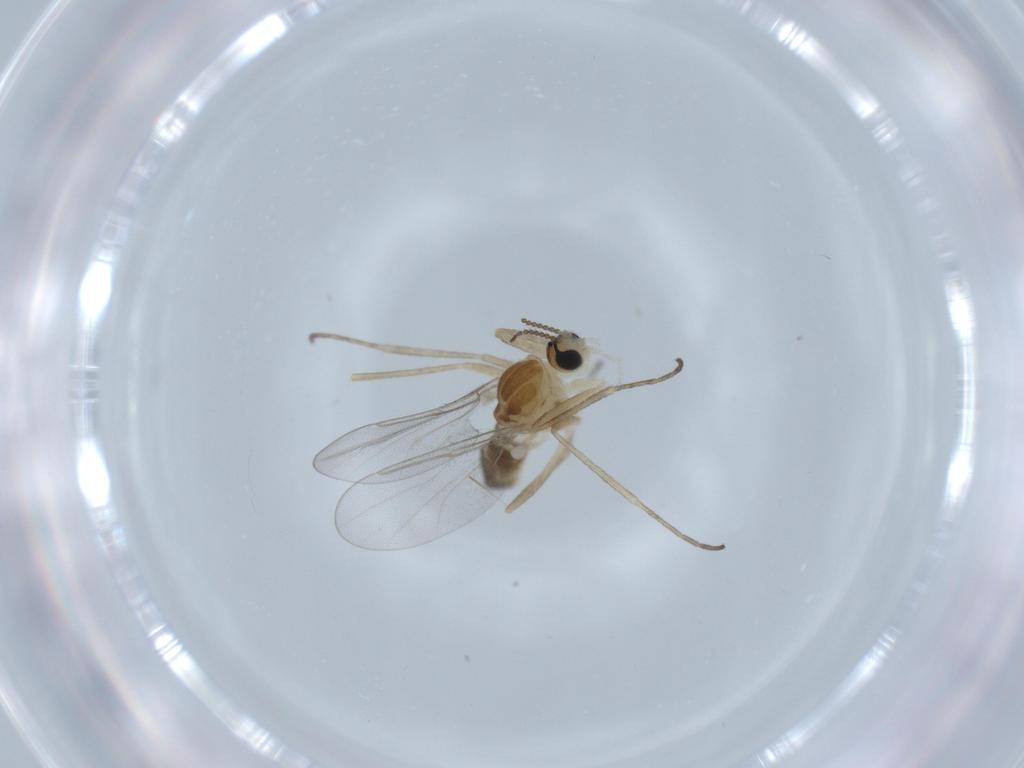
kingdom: Animalia
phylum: Arthropoda
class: Insecta
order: Diptera
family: Cecidomyiidae
